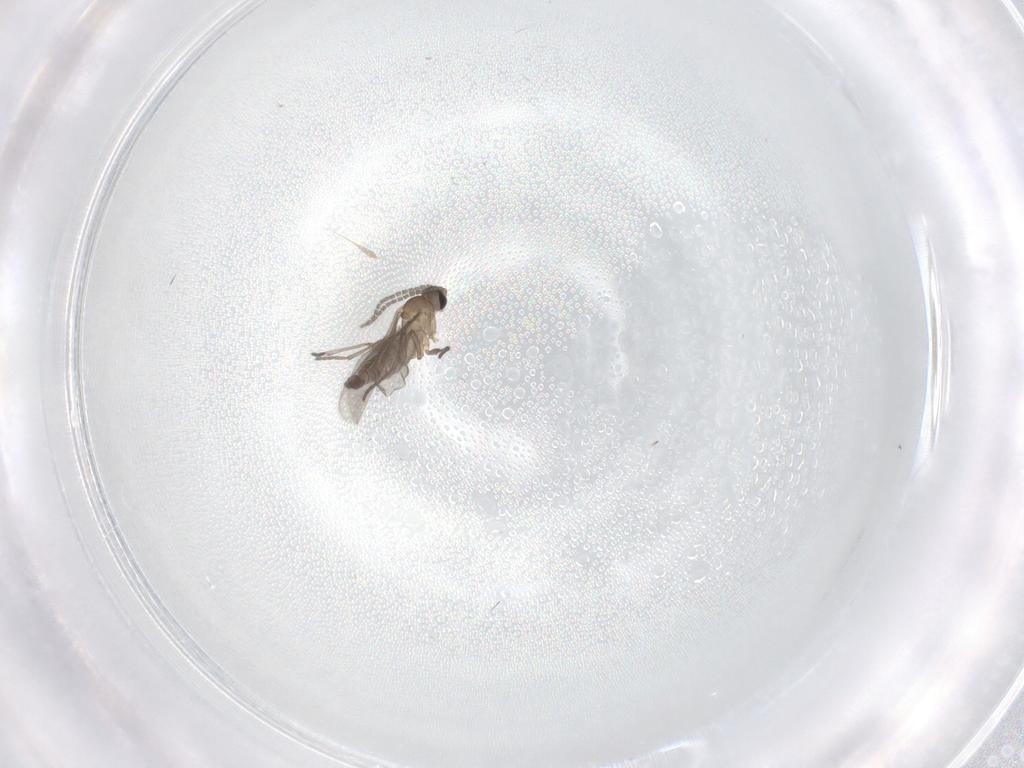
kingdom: Animalia
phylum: Arthropoda
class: Insecta
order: Diptera
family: Sciaridae
